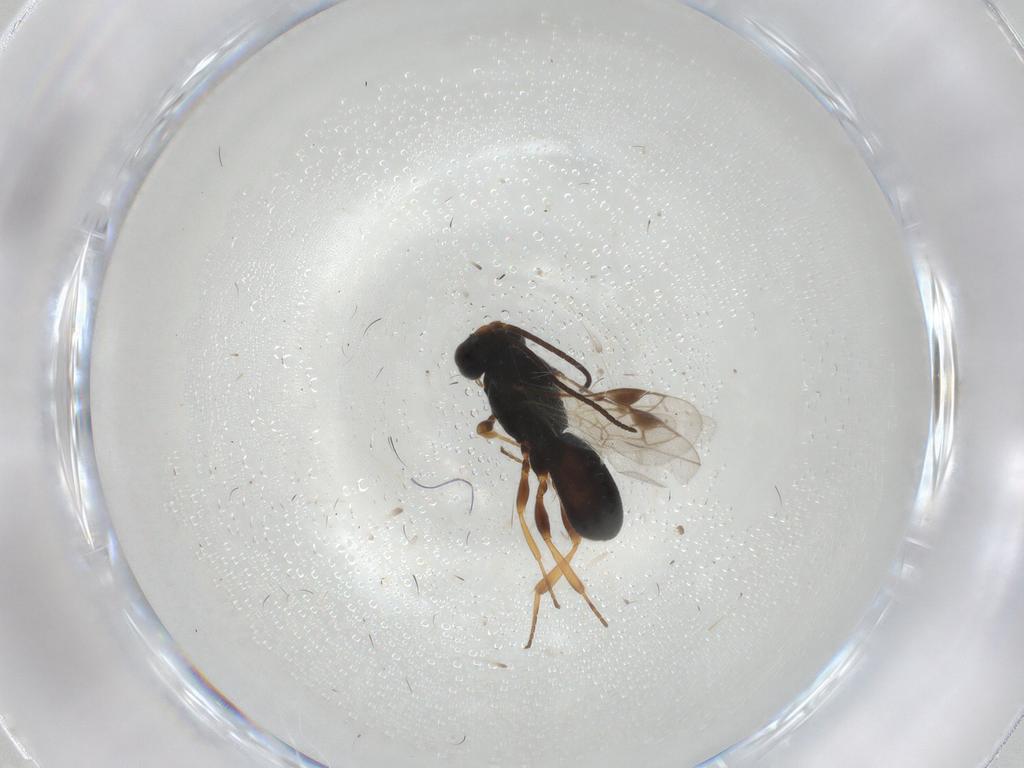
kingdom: Animalia
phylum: Arthropoda
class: Insecta
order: Hymenoptera
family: Braconidae
